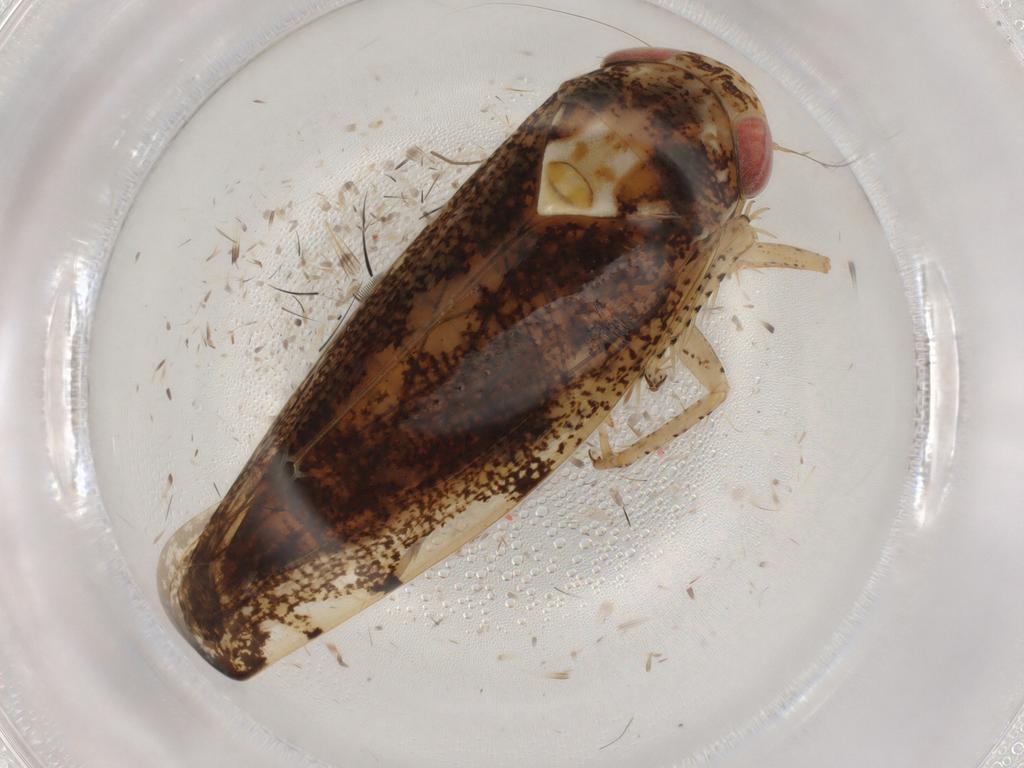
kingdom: Animalia
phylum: Arthropoda
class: Insecta
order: Hemiptera
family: Cicadellidae
